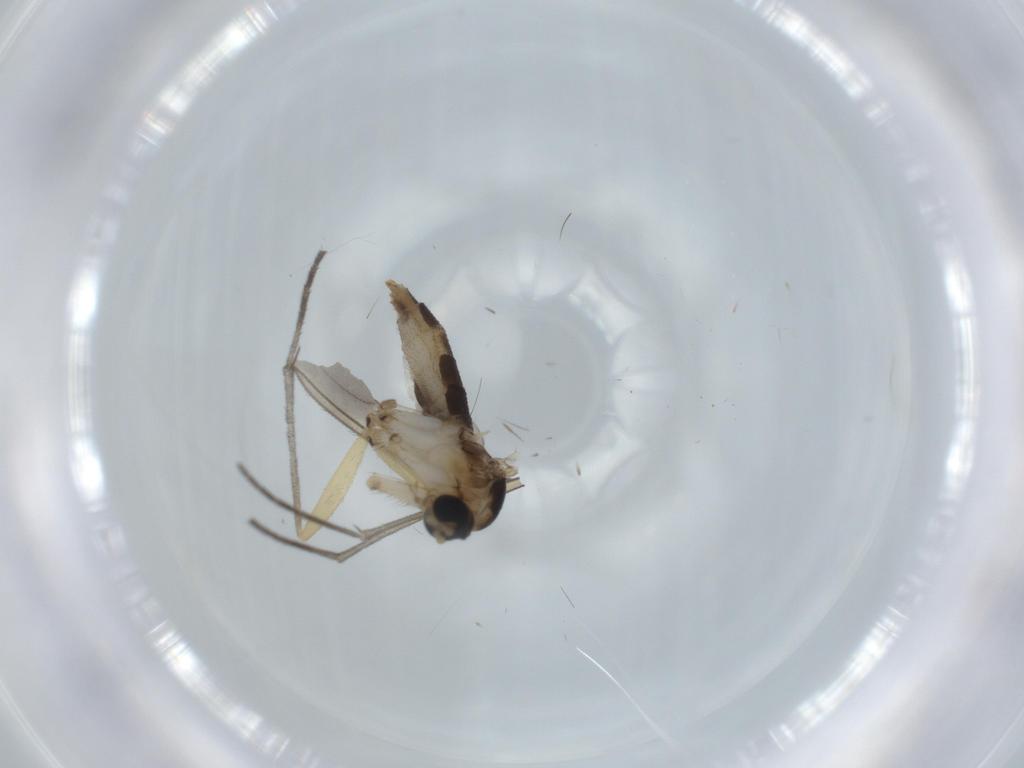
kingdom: Animalia
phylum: Arthropoda
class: Insecta
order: Diptera
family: Sciaridae
